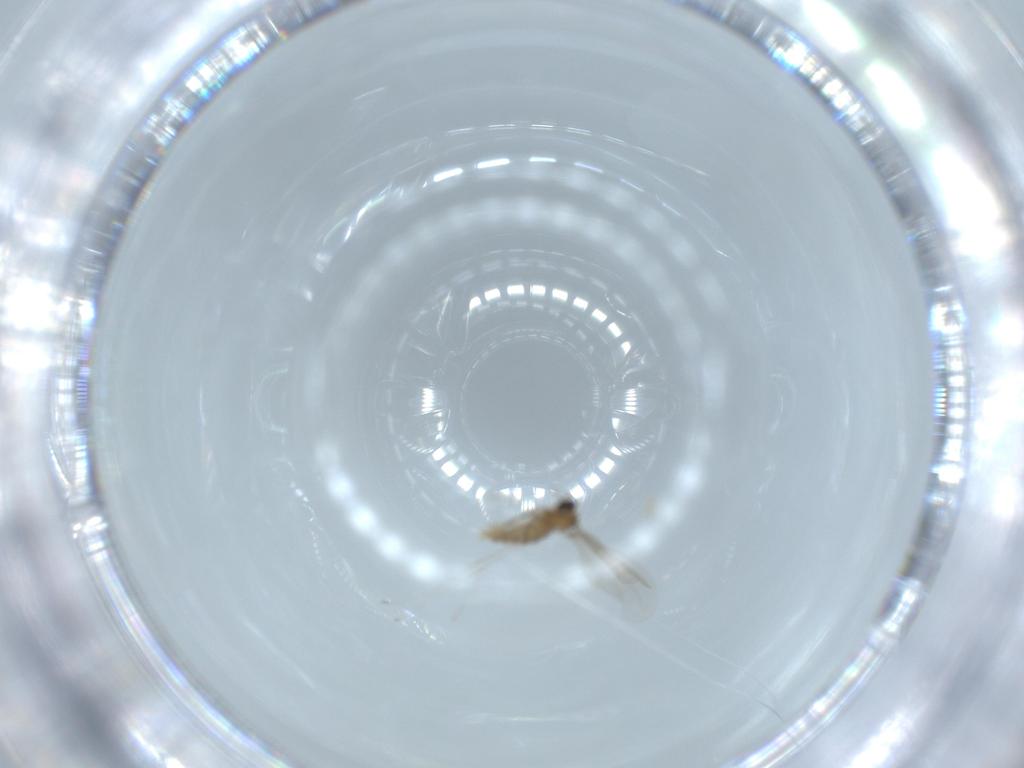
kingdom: Animalia
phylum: Arthropoda
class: Insecta
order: Diptera
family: Cecidomyiidae
